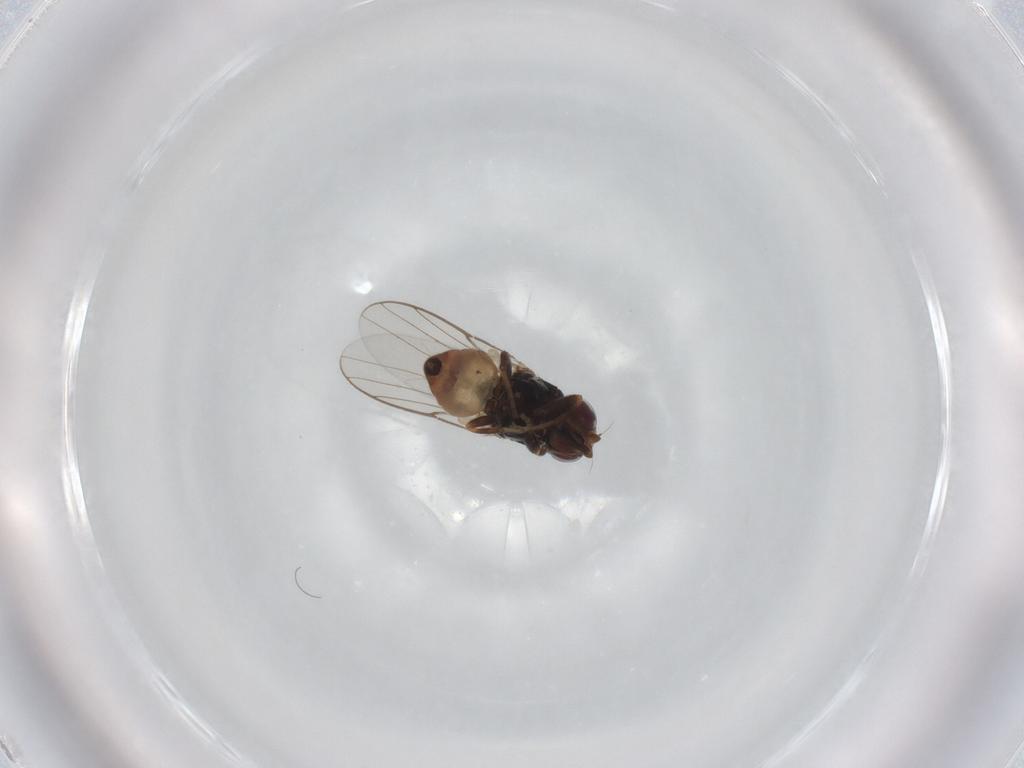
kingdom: Animalia
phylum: Arthropoda
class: Insecta
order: Diptera
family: Chloropidae
